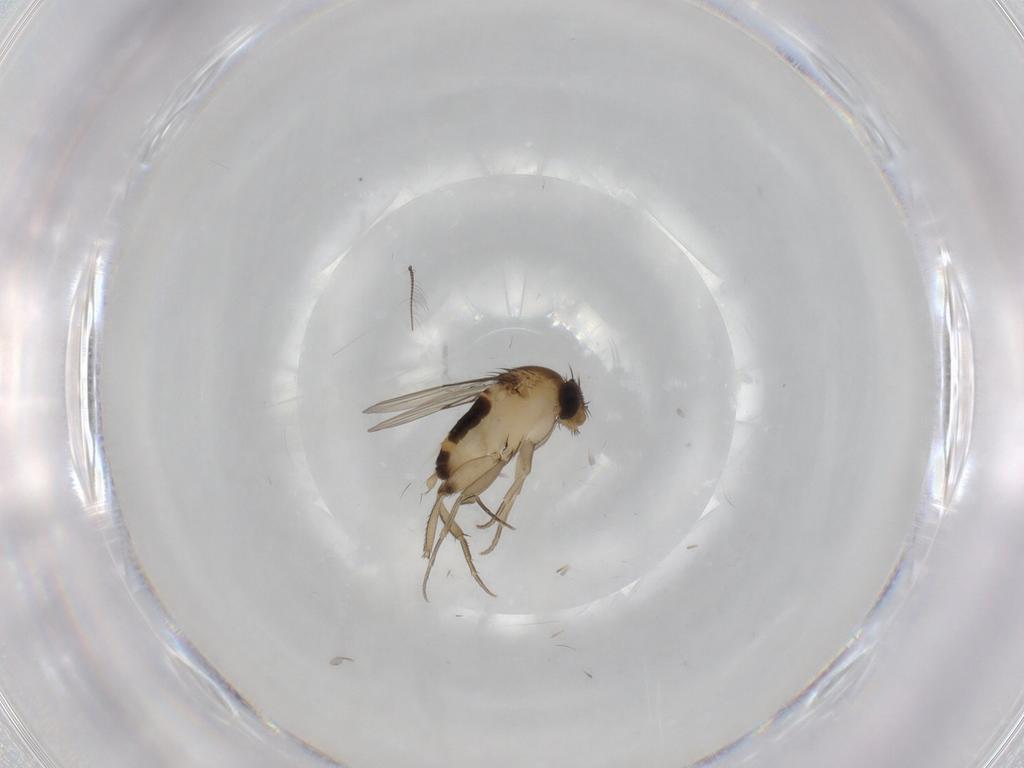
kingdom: Animalia
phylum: Arthropoda
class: Insecta
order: Diptera
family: Phoridae
